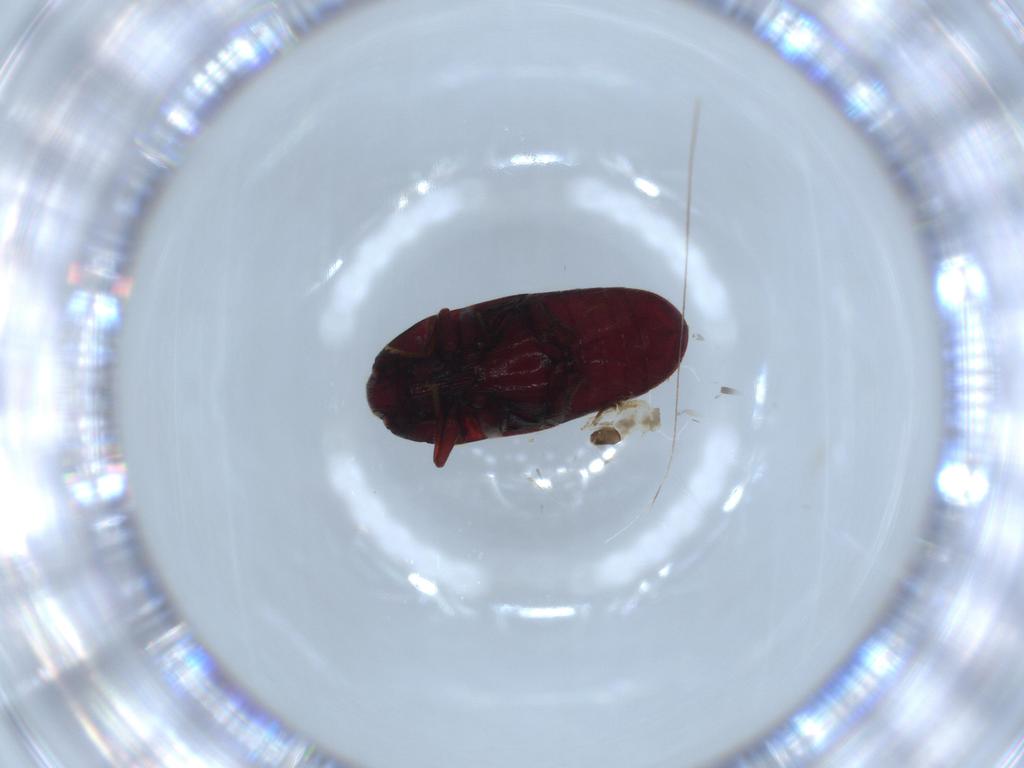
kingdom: Animalia
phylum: Arthropoda
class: Insecta
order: Coleoptera
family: Throscidae
